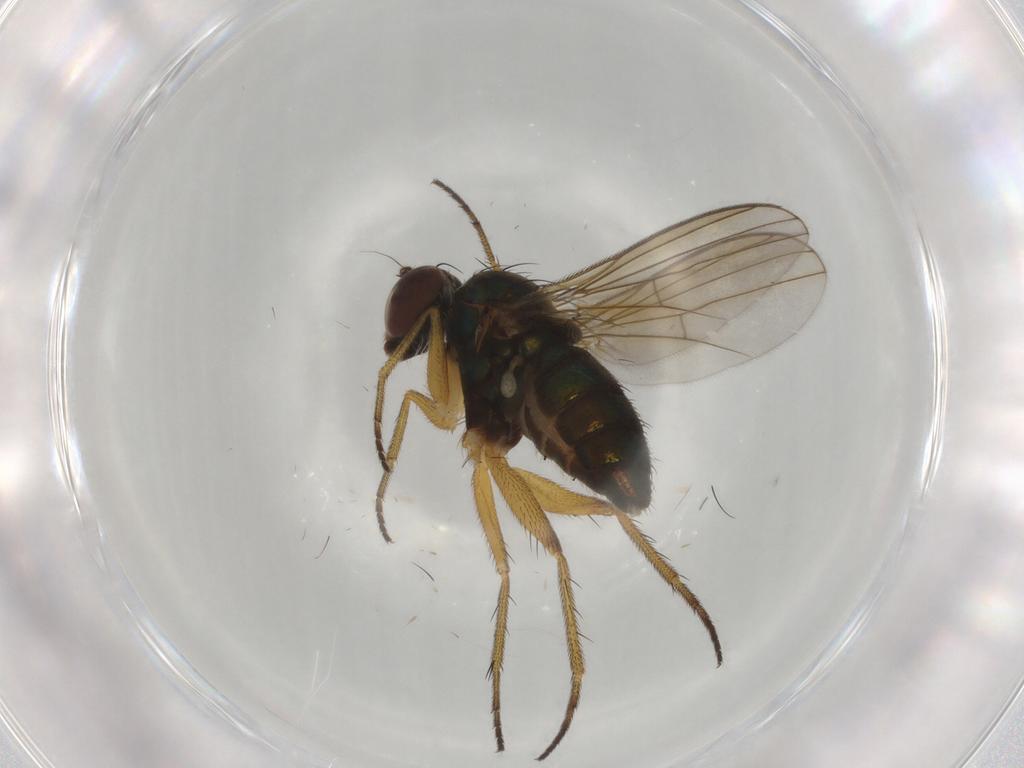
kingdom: Animalia
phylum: Arthropoda
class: Insecta
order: Diptera
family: Dolichopodidae
